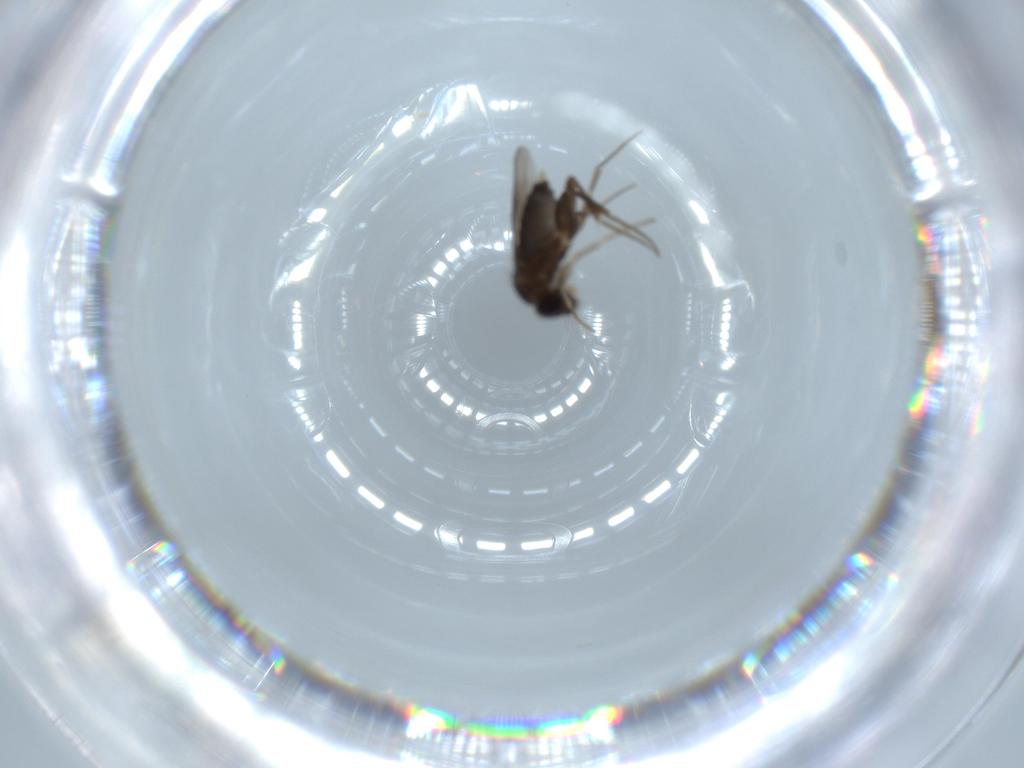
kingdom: Animalia
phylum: Arthropoda
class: Insecta
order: Diptera
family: Phoridae
